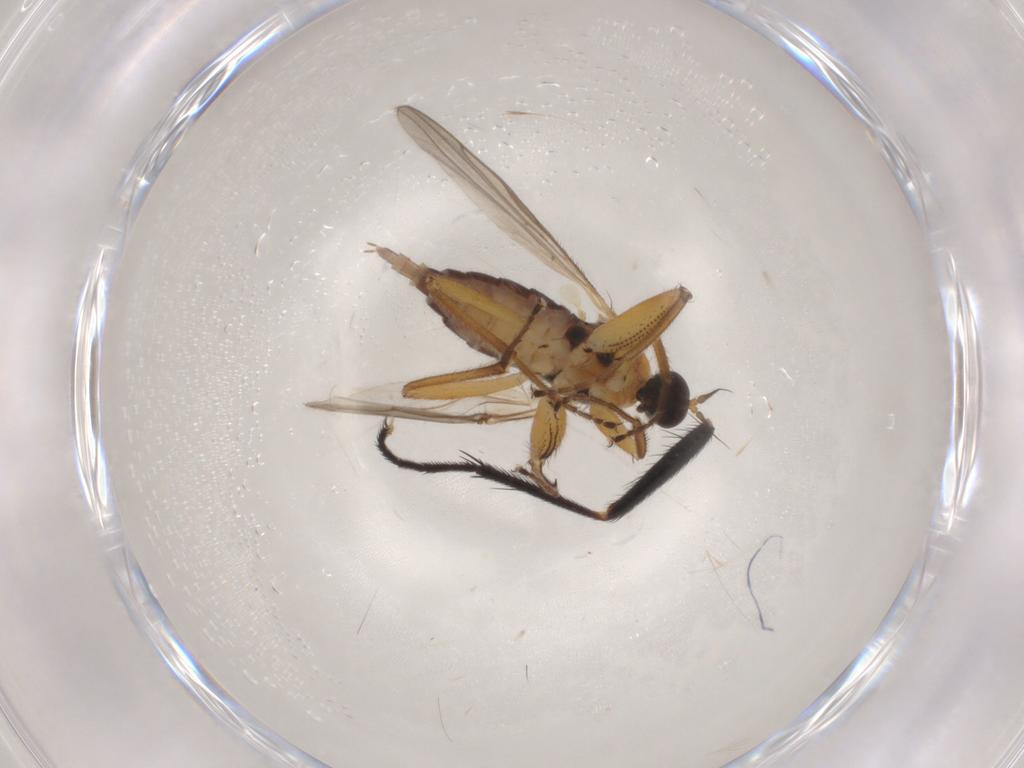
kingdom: Animalia
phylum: Arthropoda
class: Insecta
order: Diptera
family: Hybotidae
